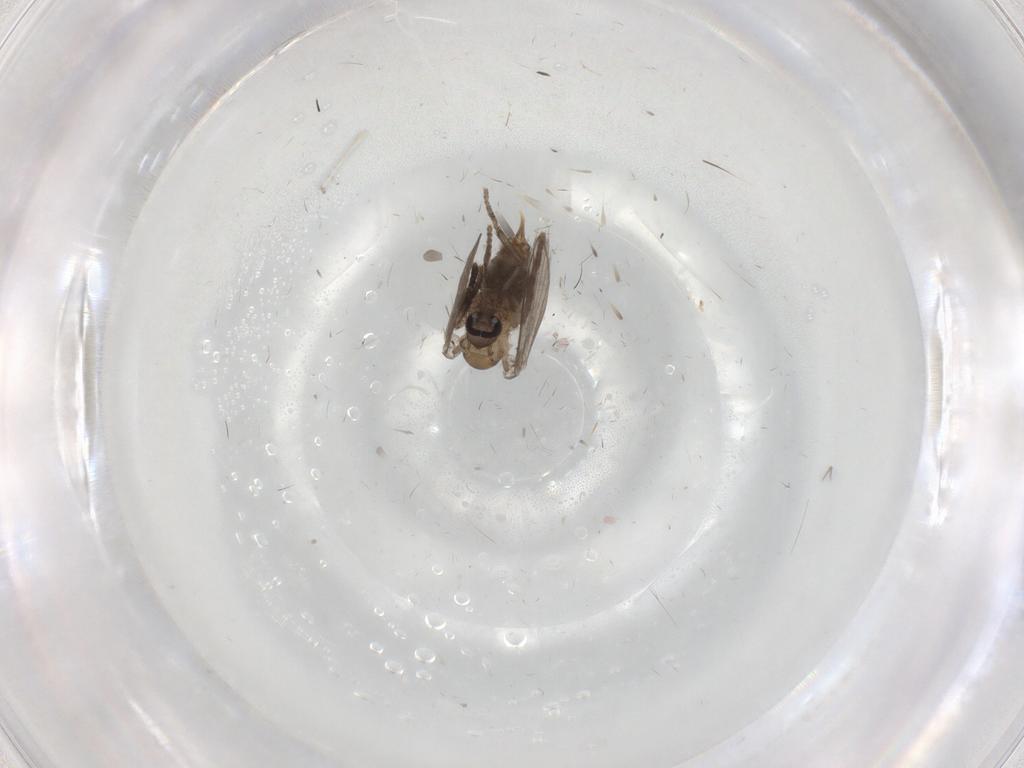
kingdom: Animalia
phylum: Arthropoda
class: Insecta
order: Diptera
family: Psychodidae
